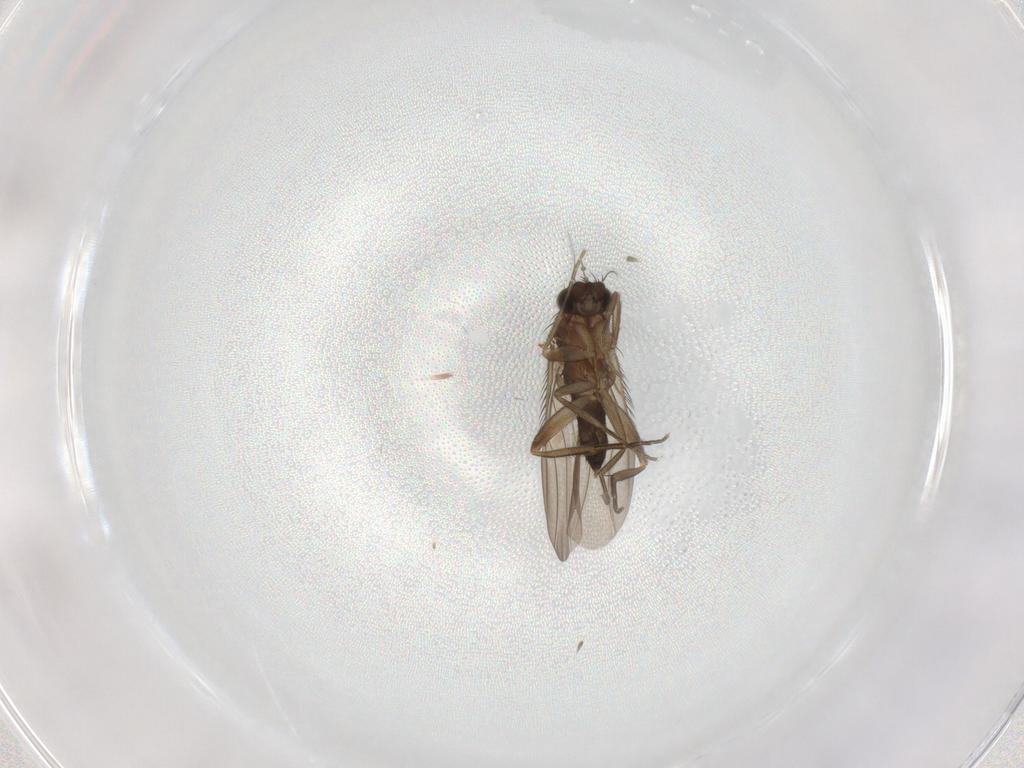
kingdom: Animalia
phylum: Arthropoda
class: Insecta
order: Diptera
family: Phoridae
